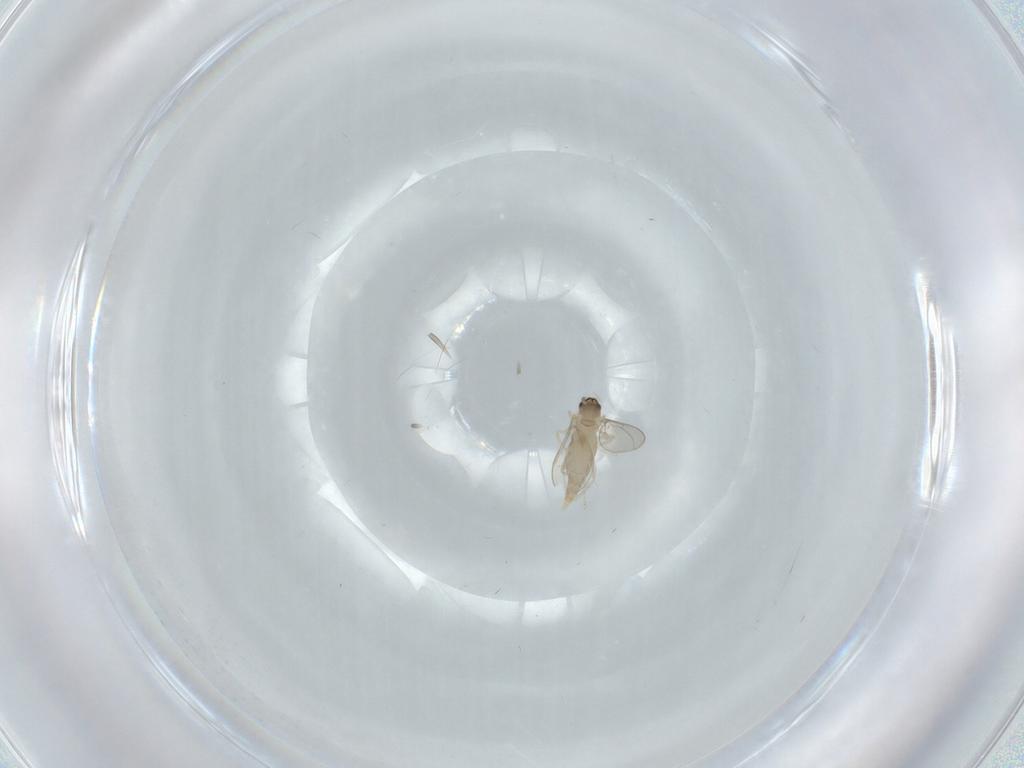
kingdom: Animalia
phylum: Arthropoda
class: Insecta
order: Diptera
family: Cecidomyiidae
